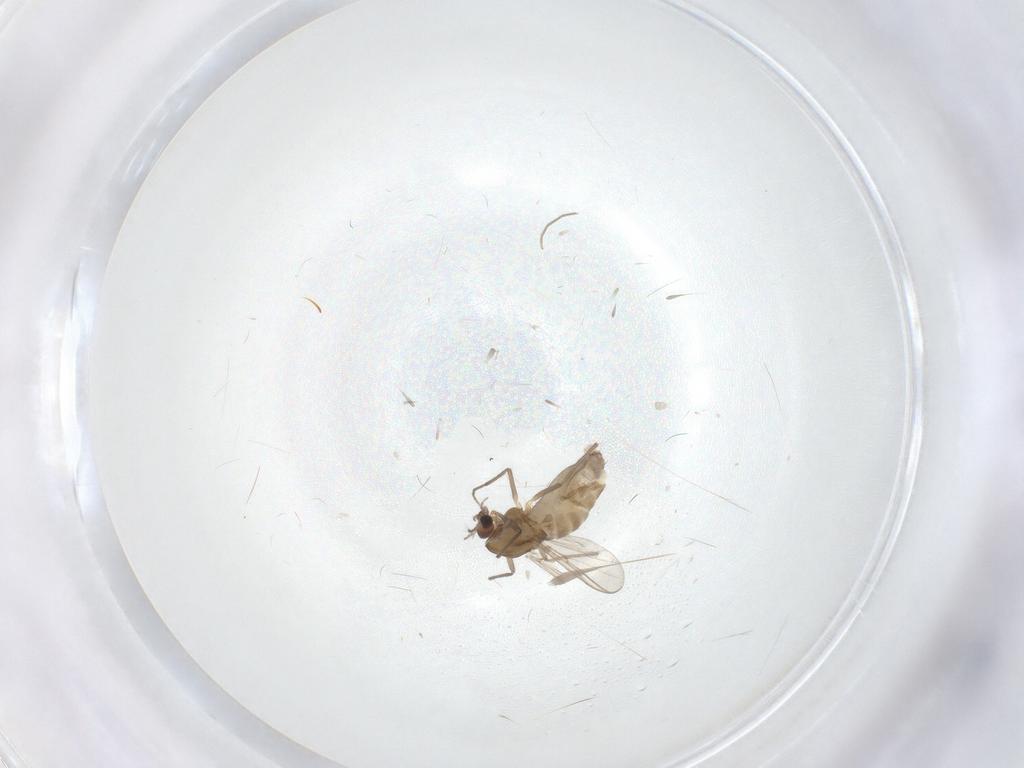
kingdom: Animalia
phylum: Arthropoda
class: Insecta
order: Diptera
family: Chironomidae
